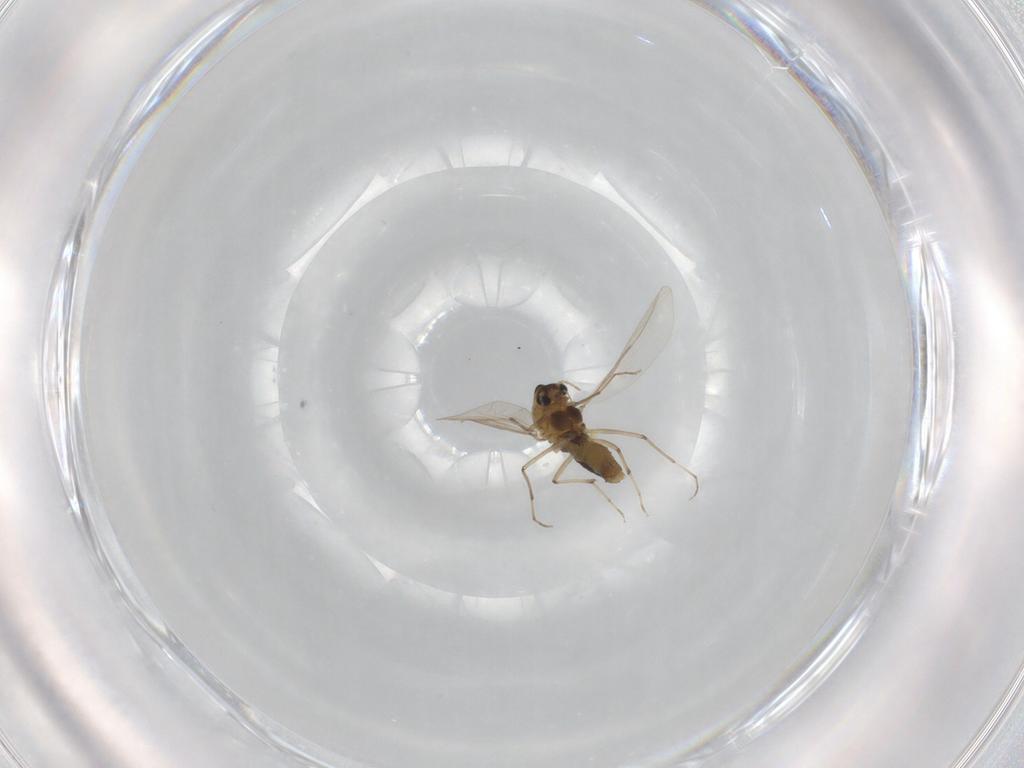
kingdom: Animalia
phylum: Arthropoda
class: Insecta
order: Diptera
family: Chironomidae
